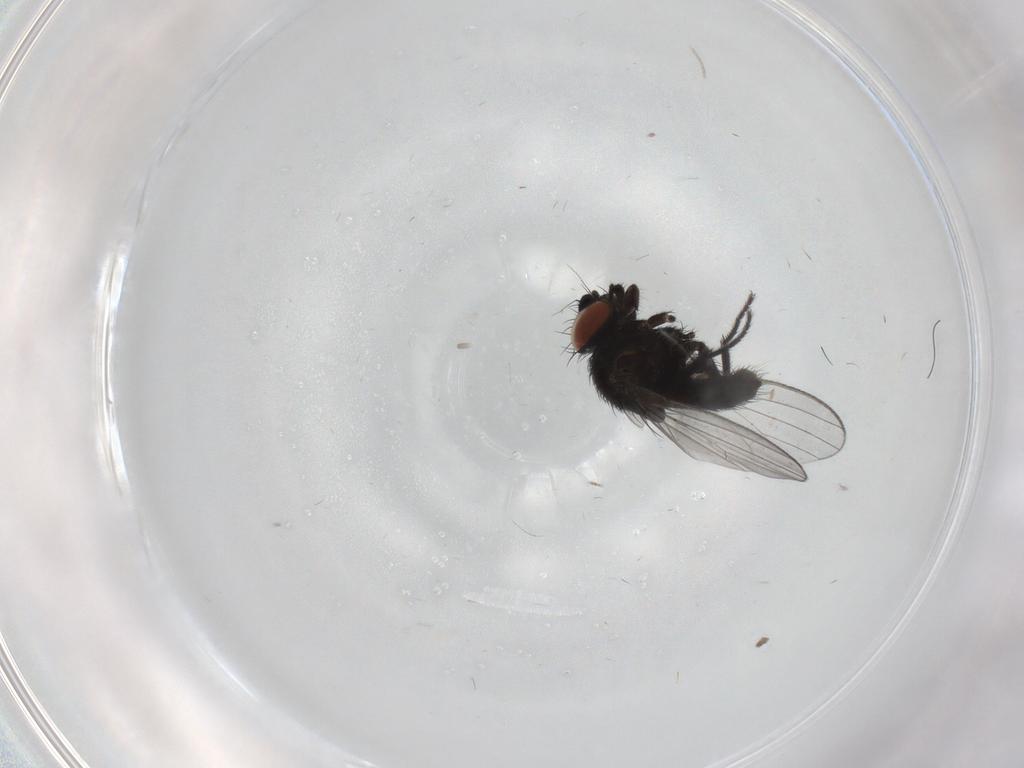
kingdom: Animalia
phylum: Arthropoda
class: Insecta
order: Diptera
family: Milichiidae
